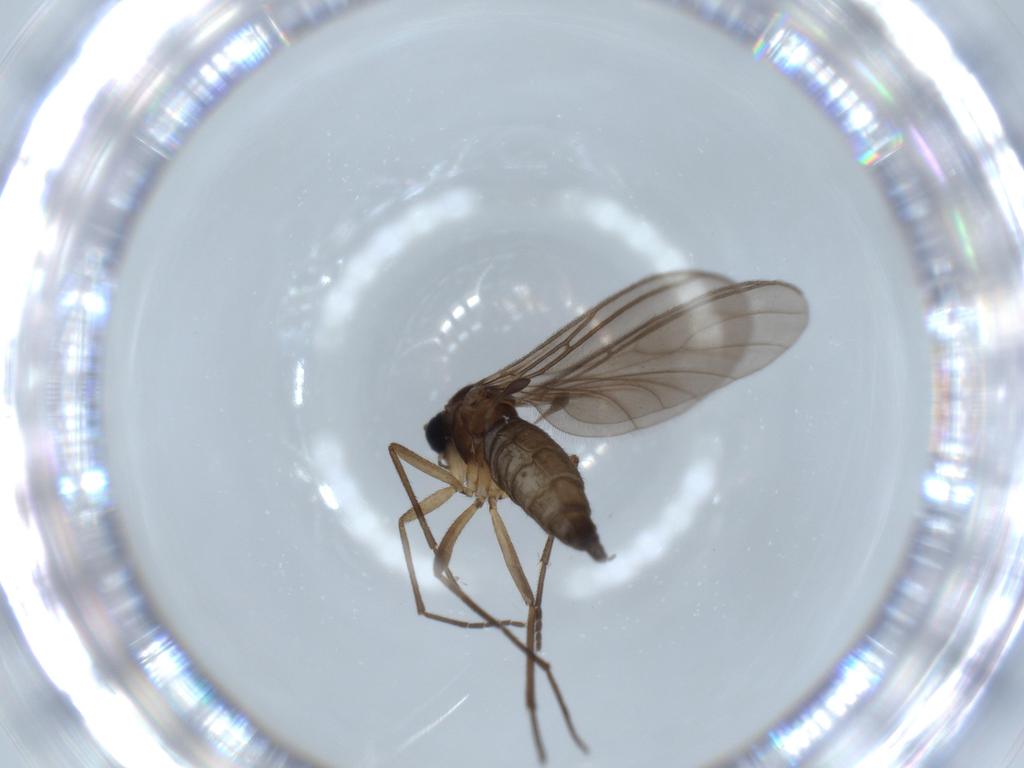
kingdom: Animalia
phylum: Arthropoda
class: Insecta
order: Diptera
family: Sciaridae
